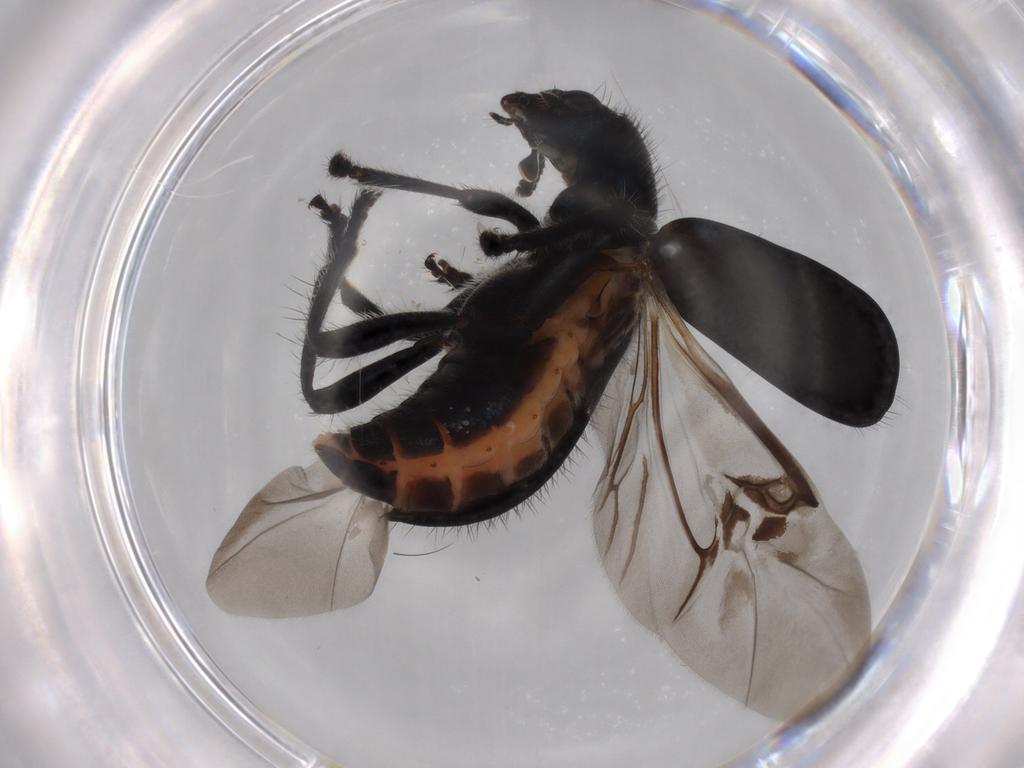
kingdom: Animalia
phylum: Arthropoda
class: Insecta
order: Coleoptera
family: Cleridae
